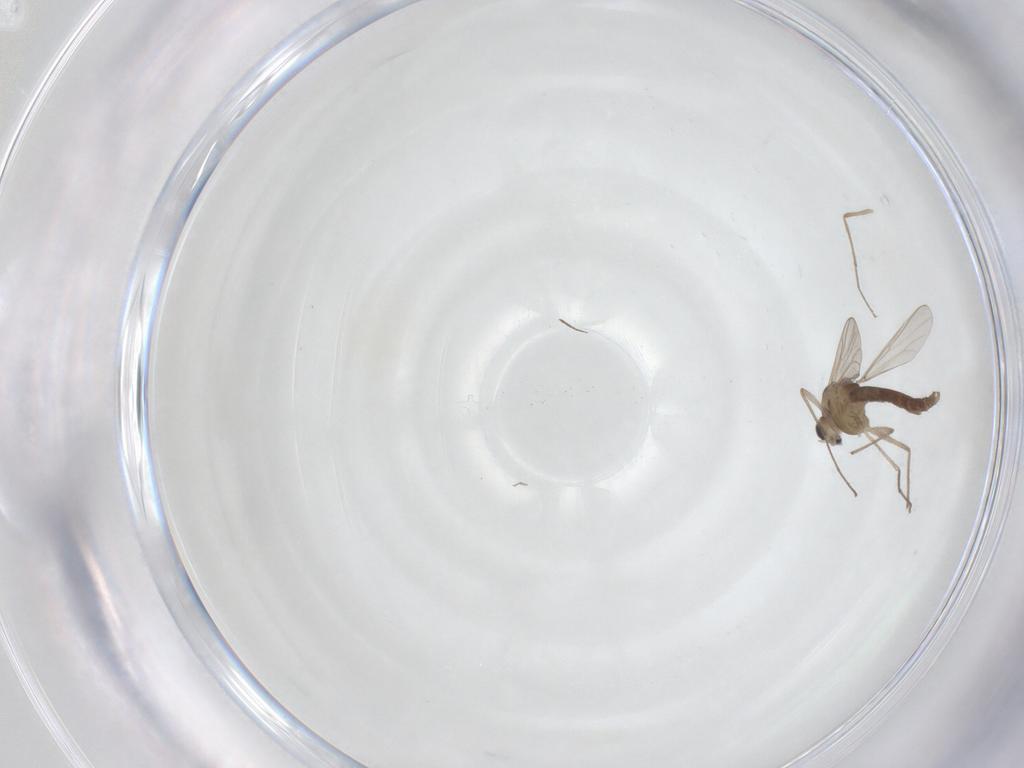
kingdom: Animalia
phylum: Arthropoda
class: Insecta
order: Diptera
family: Chironomidae
